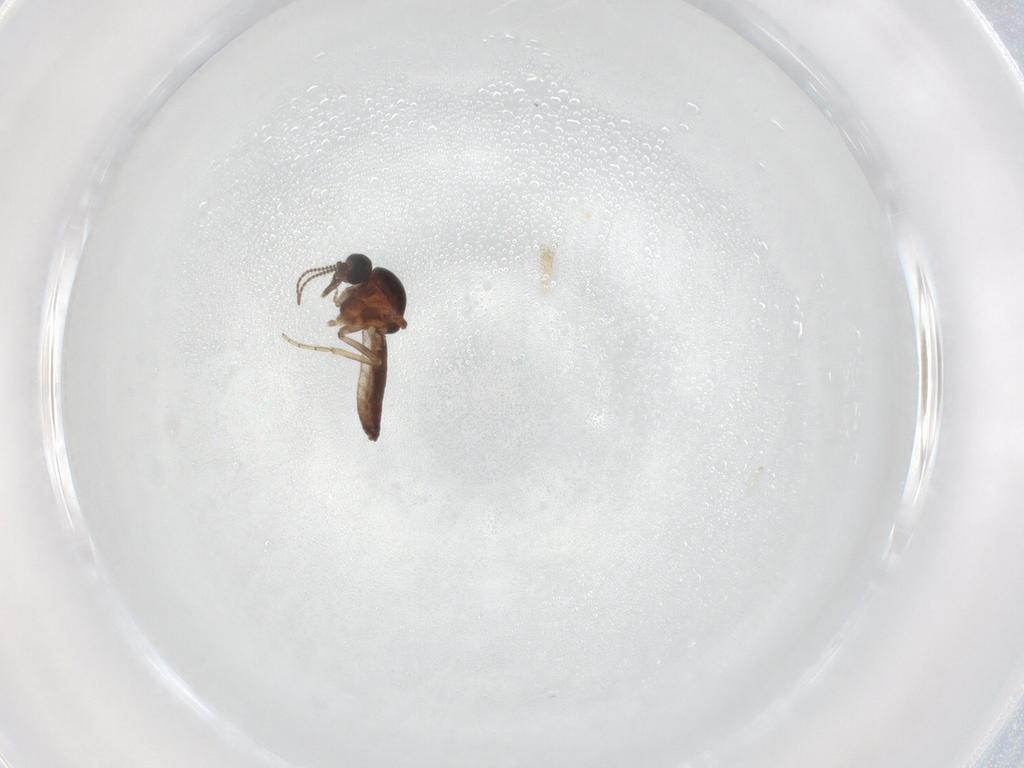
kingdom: Animalia
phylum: Arthropoda
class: Insecta
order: Diptera
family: Ceratopogonidae
